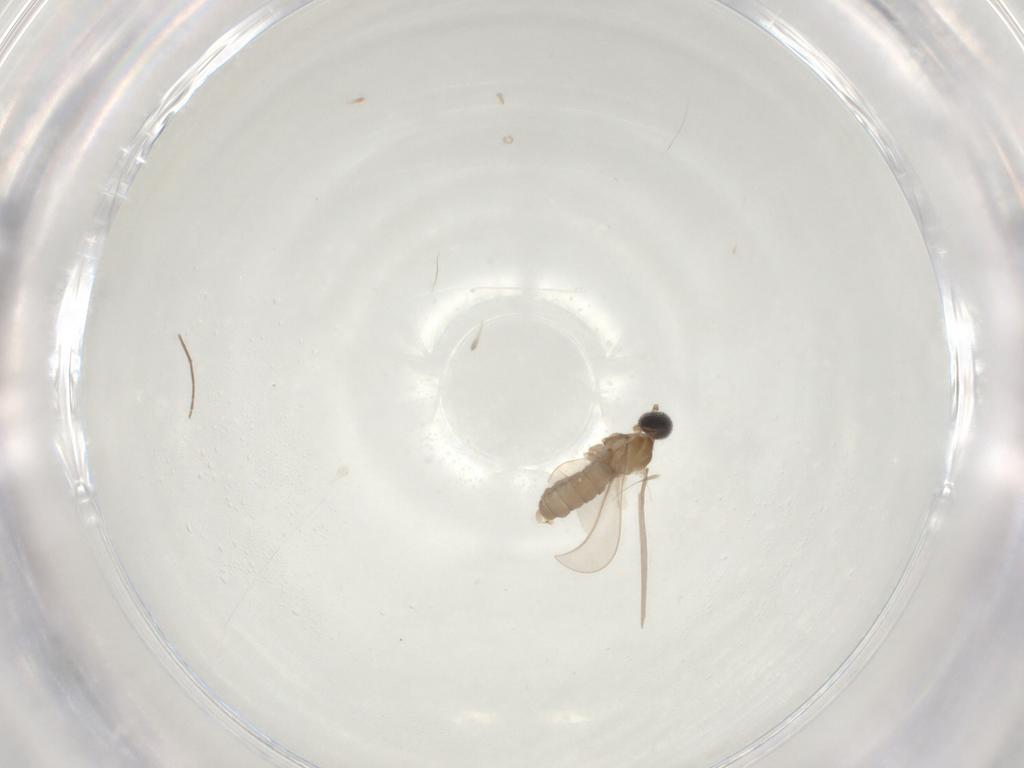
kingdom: Animalia
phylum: Arthropoda
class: Insecta
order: Diptera
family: Cecidomyiidae
